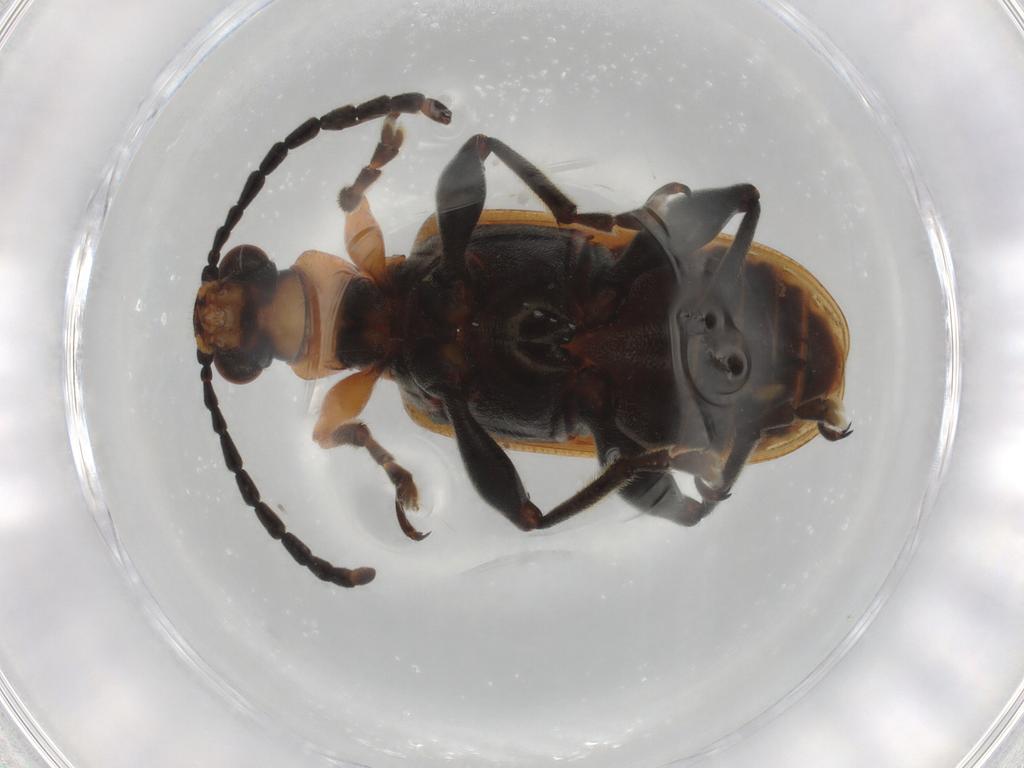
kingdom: Animalia
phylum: Arthropoda
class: Insecta
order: Coleoptera
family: Chrysomelidae
